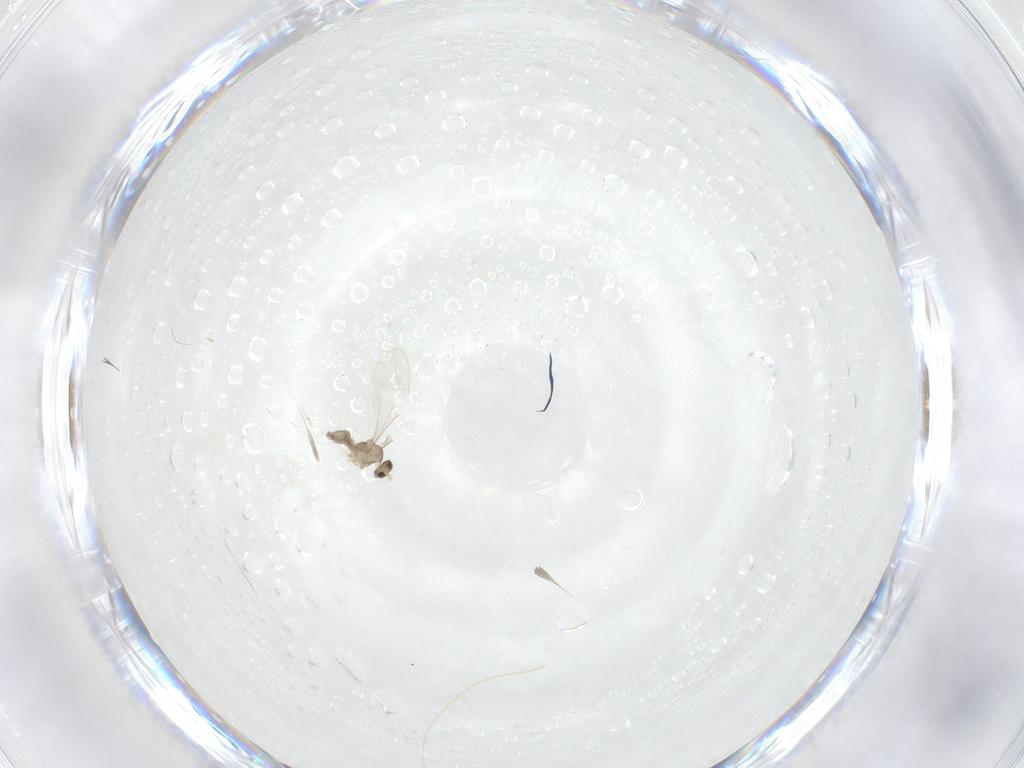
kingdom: Animalia
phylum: Arthropoda
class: Insecta
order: Diptera
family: Cecidomyiidae
